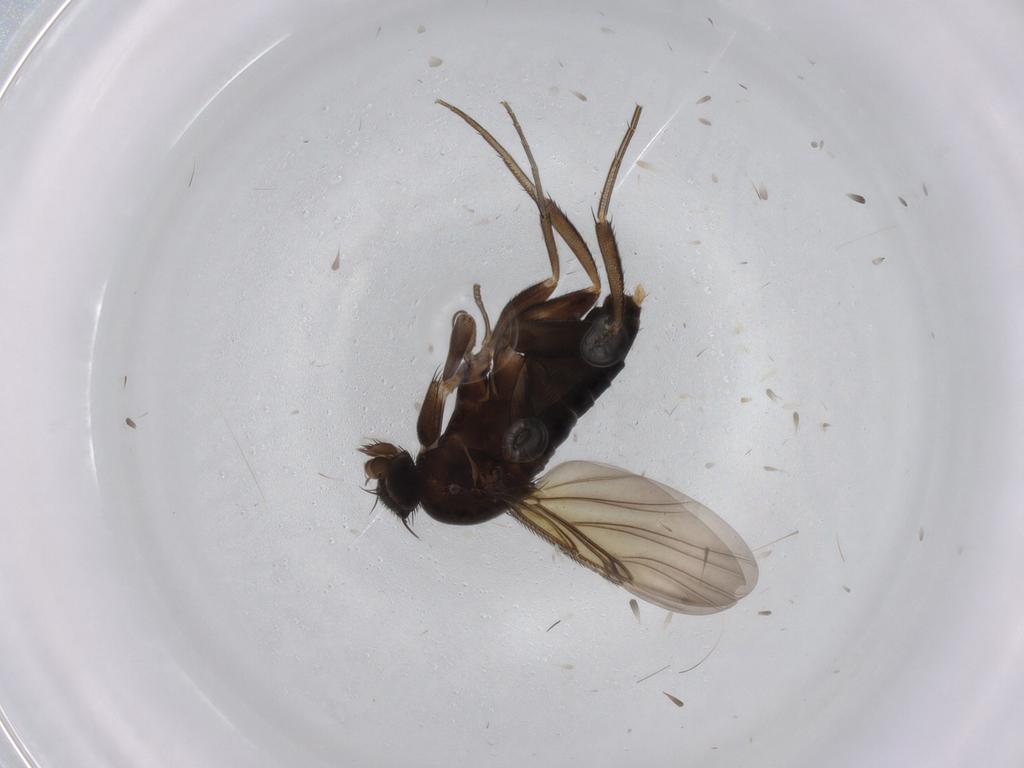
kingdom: Animalia
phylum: Arthropoda
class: Insecta
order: Diptera
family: Phoridae
